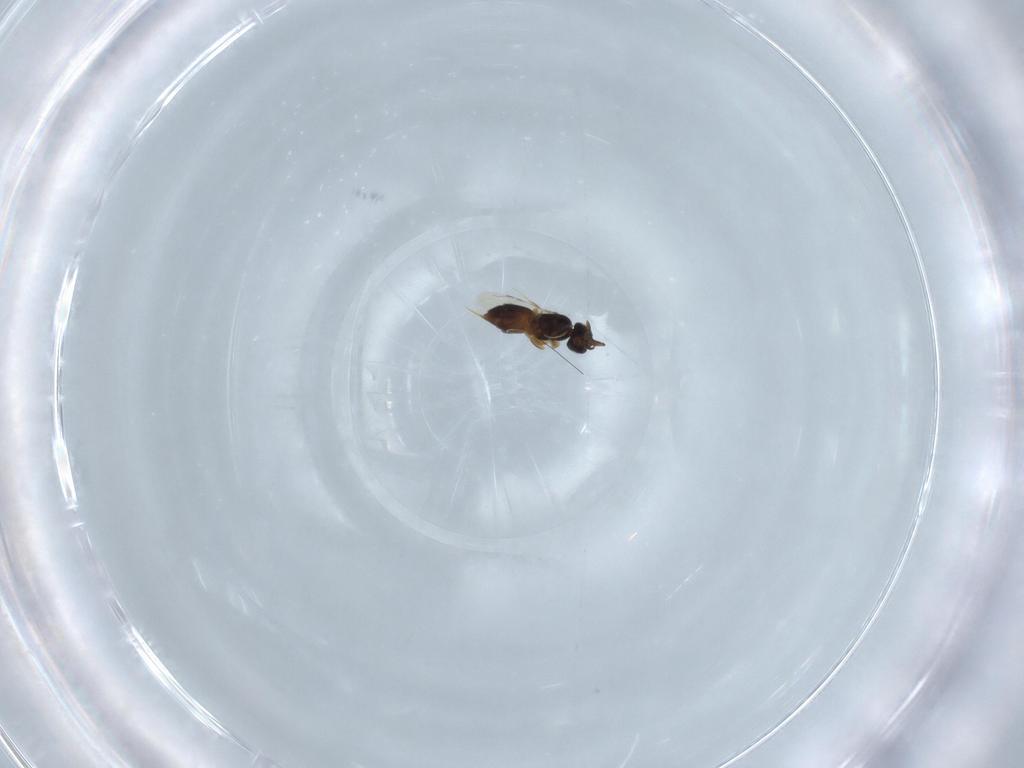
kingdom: Animalia
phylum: Arthropoda
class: Insecta
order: Hymenoptera
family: Ceraphronidae
